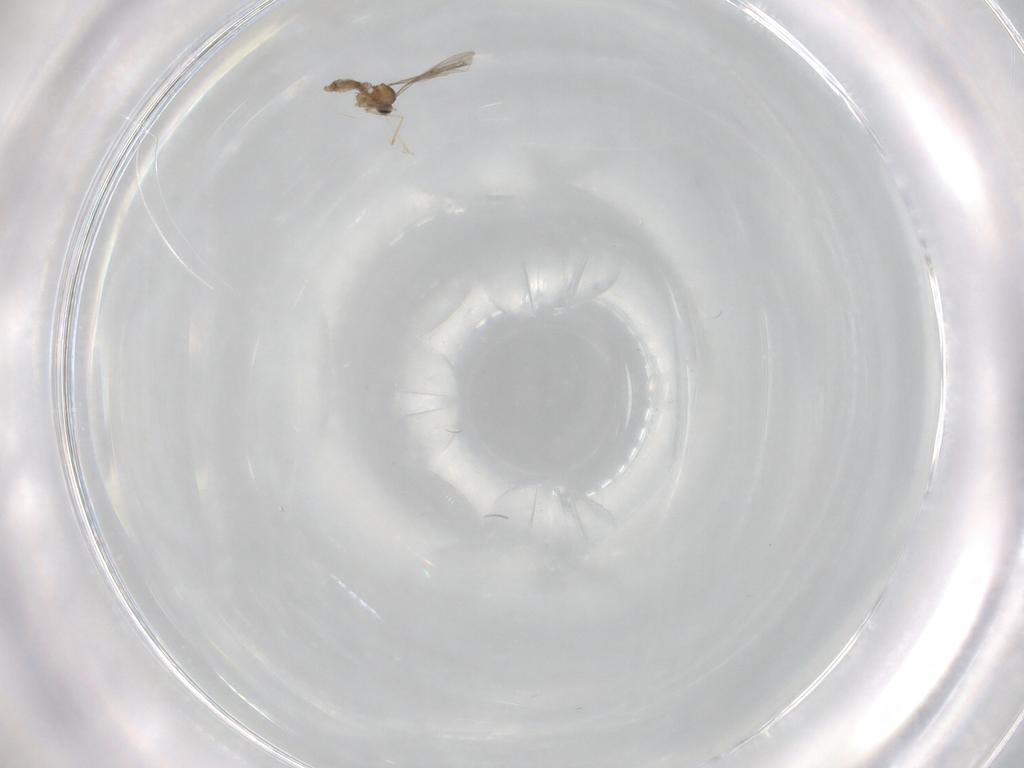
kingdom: Animalia
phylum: Arthropoda
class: Insecta
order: Diptera
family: Cecidomyiidae
